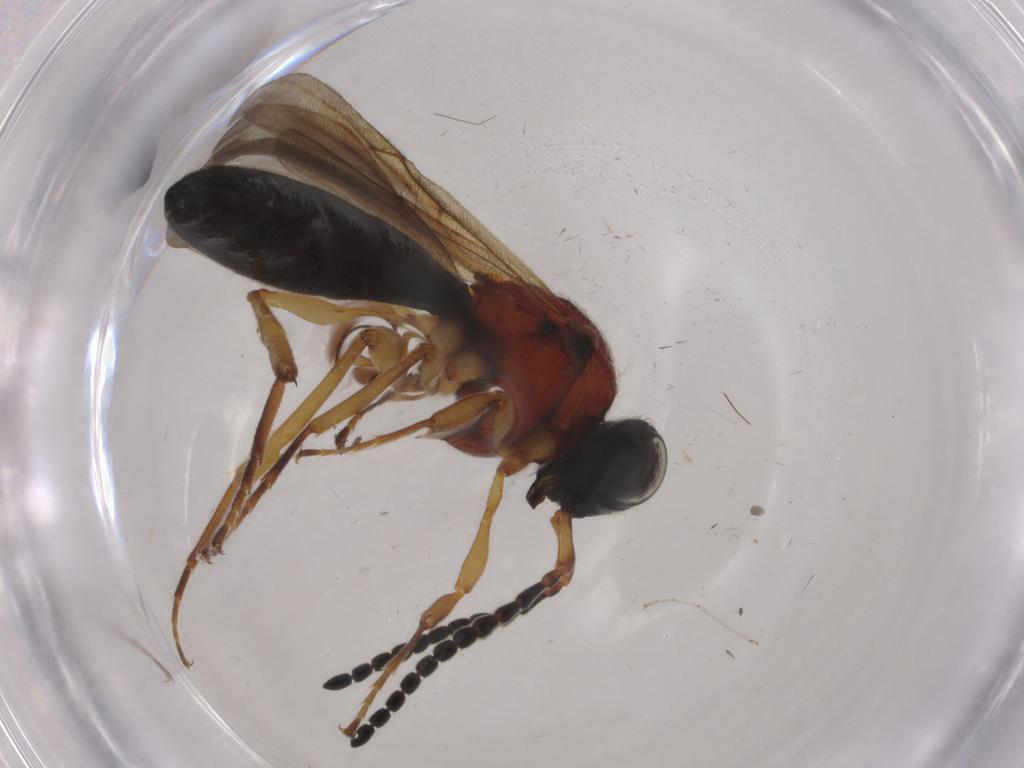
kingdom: Animalia
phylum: Arthropoda
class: Insecta
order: Hymenoptera
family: Scelionidae
